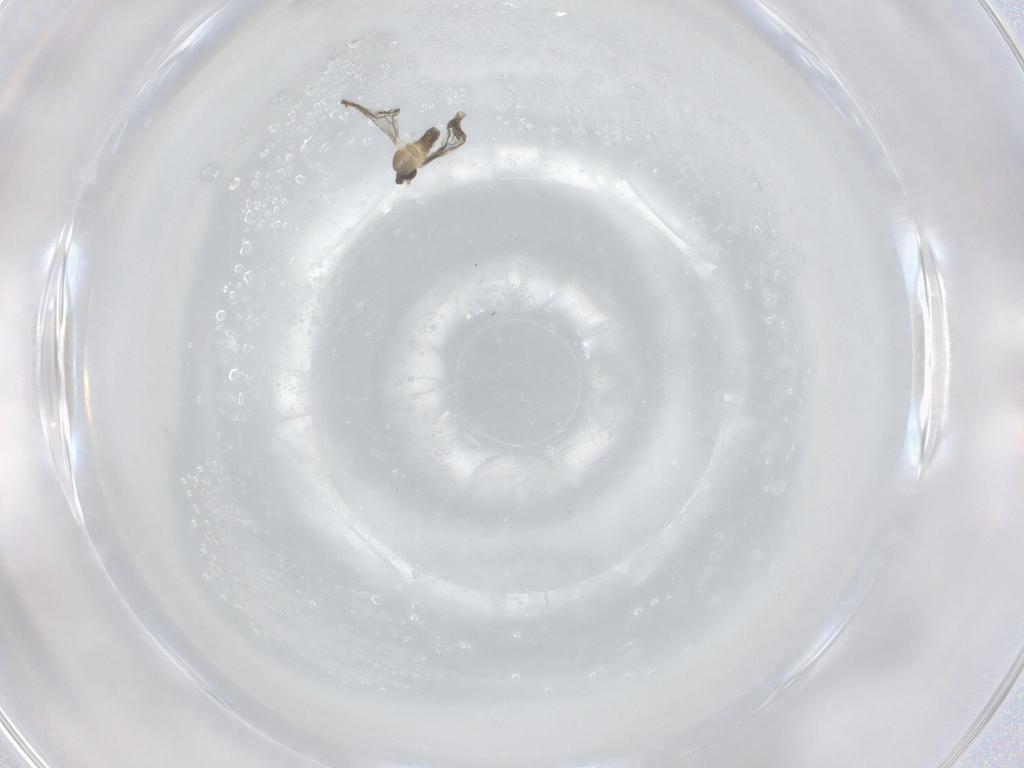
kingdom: Animalia
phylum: Arthropoda
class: Insecta
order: Diptera
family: Cecidomyiidae
